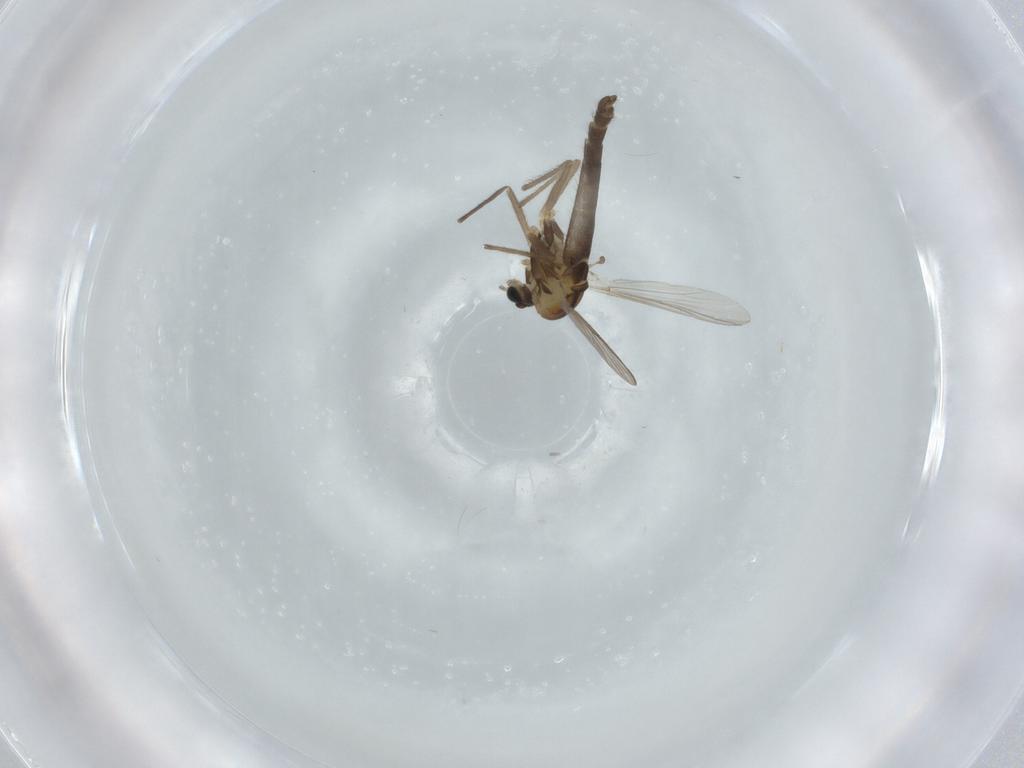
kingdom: Animalia
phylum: Arthropoda
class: Insecta
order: Diptera
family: Chironomidae
